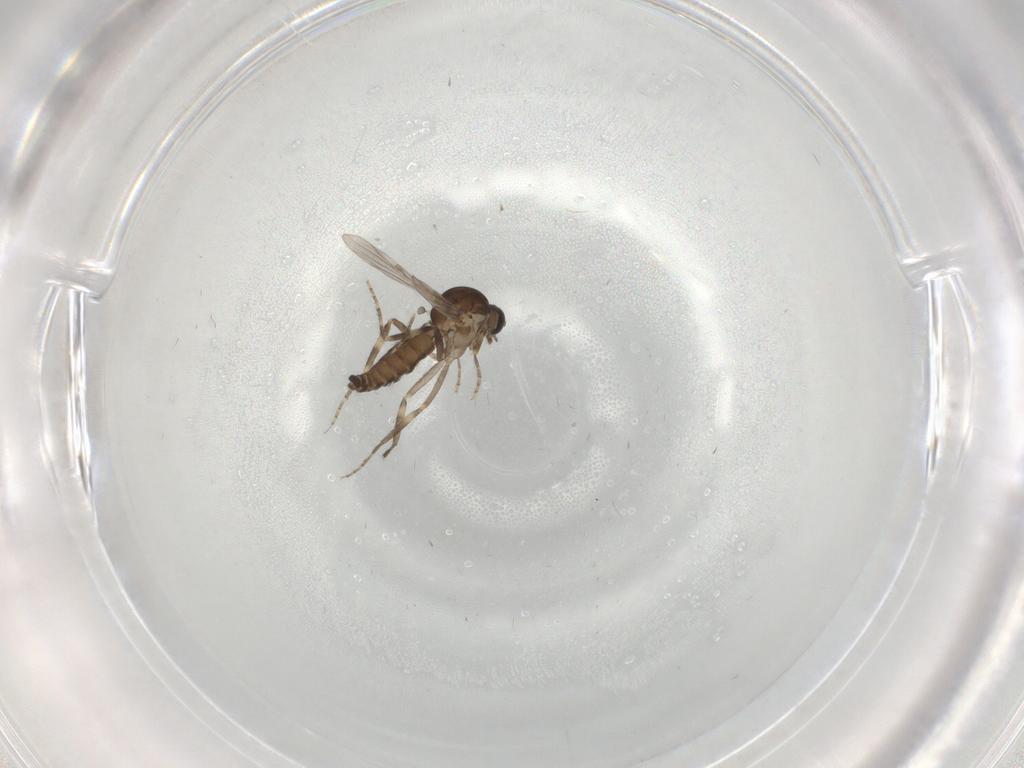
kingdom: Animalia
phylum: Arthropoda
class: Insecta
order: Diptera
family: Ceratopogonidae
